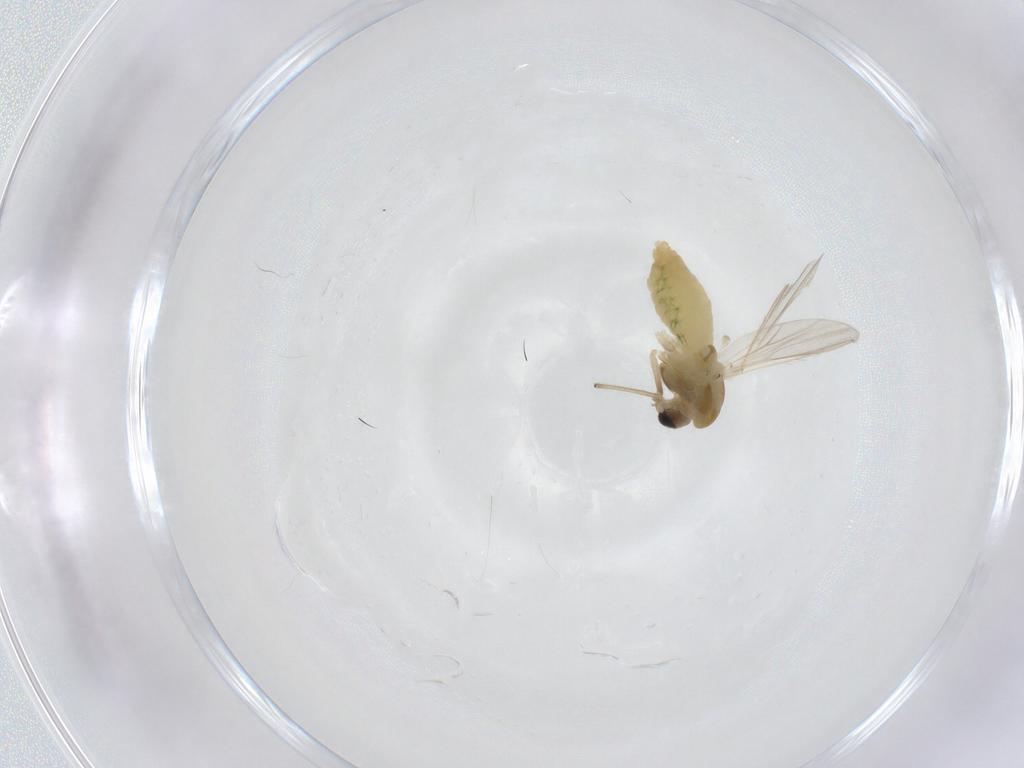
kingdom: Animalia
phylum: Arthropoda
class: Insecta
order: Diptera
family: Chironomidae
